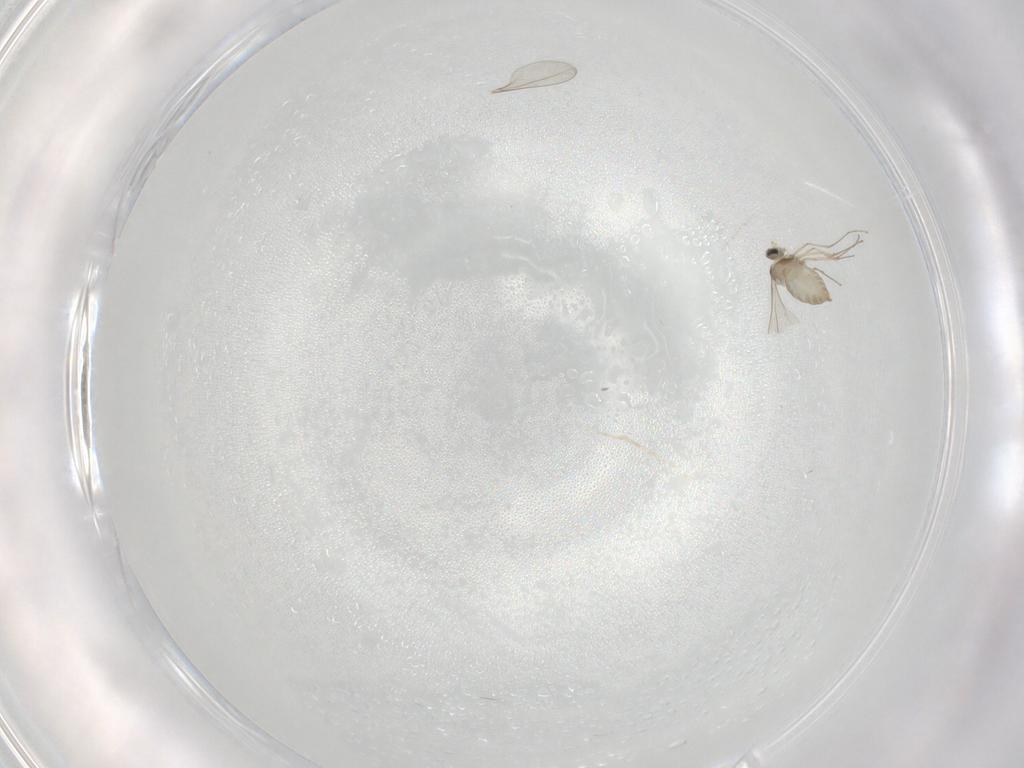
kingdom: Animalia
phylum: Arthropoda
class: Insecta
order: Diptera
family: Cecidomyiidae
